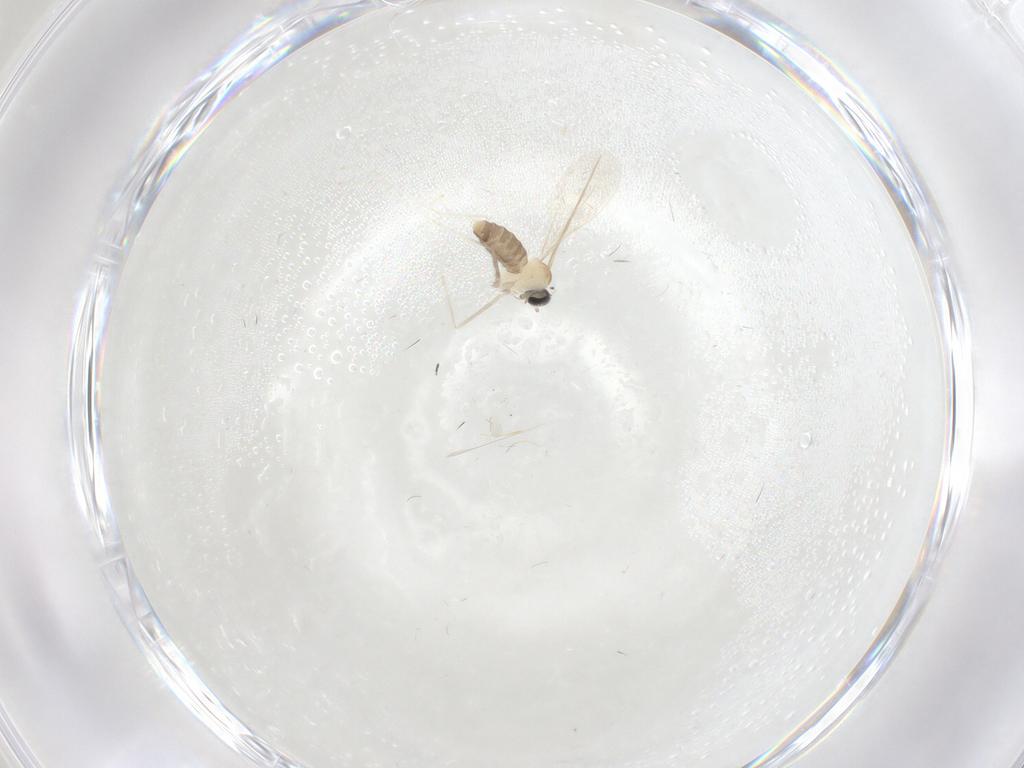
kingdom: Animalia
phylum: Arthropoda
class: Insecta
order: Diptera
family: Cecidomyiidae
